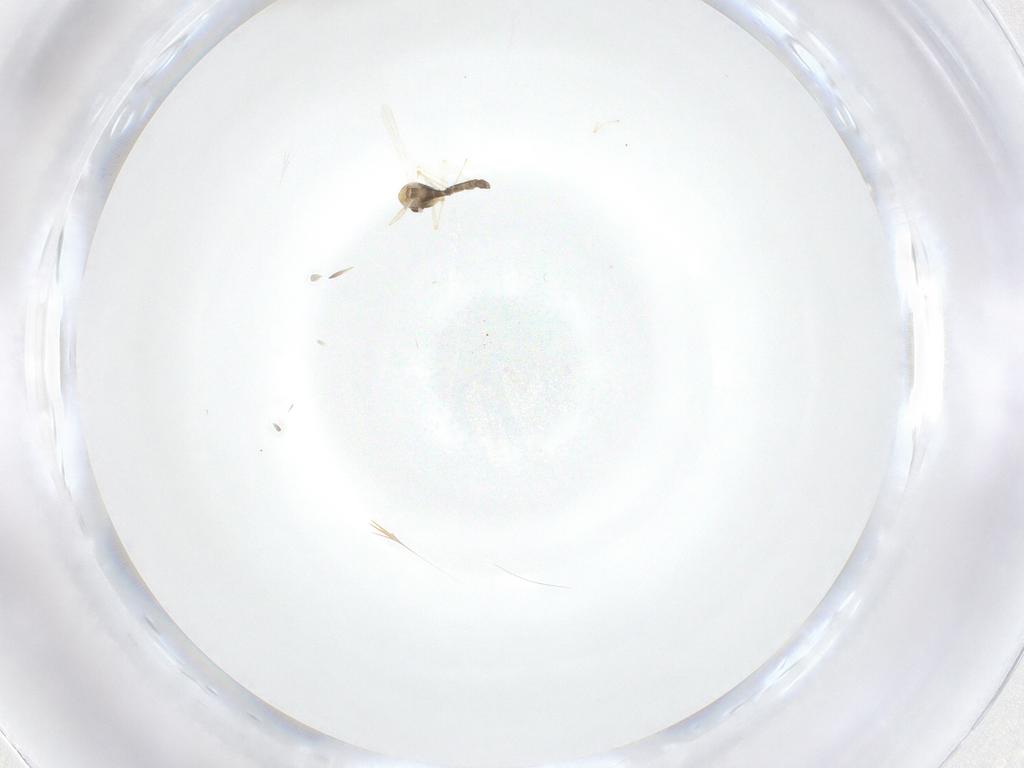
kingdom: Animalia
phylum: Arthropoda
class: Insecta
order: Diptera
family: Chironomidae
